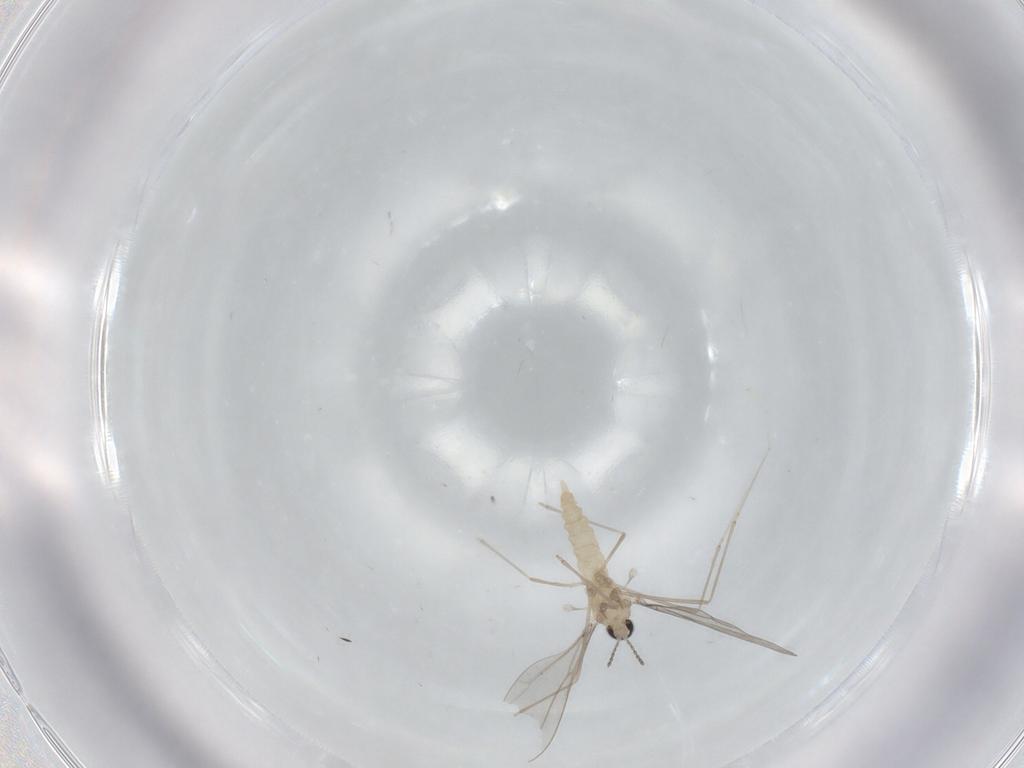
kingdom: Animalia
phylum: Arthropoda
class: Insecta
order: Diptera
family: Cecidomyiidae
